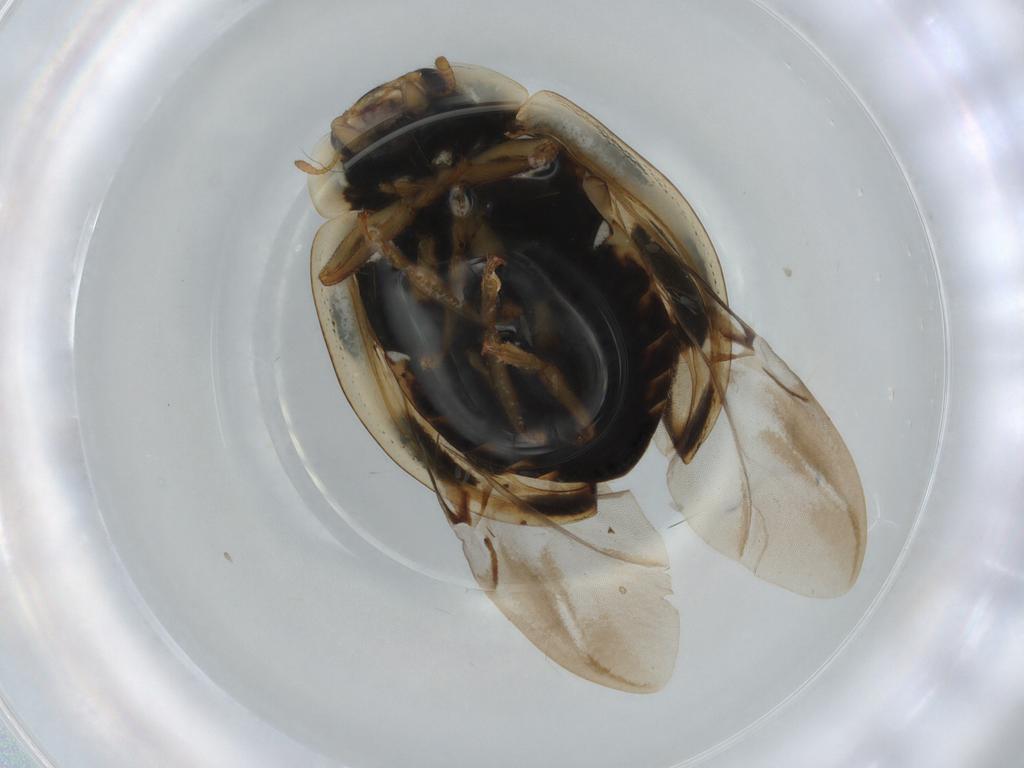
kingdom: Animalia
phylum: Arthropoda
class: Insecta
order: Coleoptera
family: Coccinellidae
